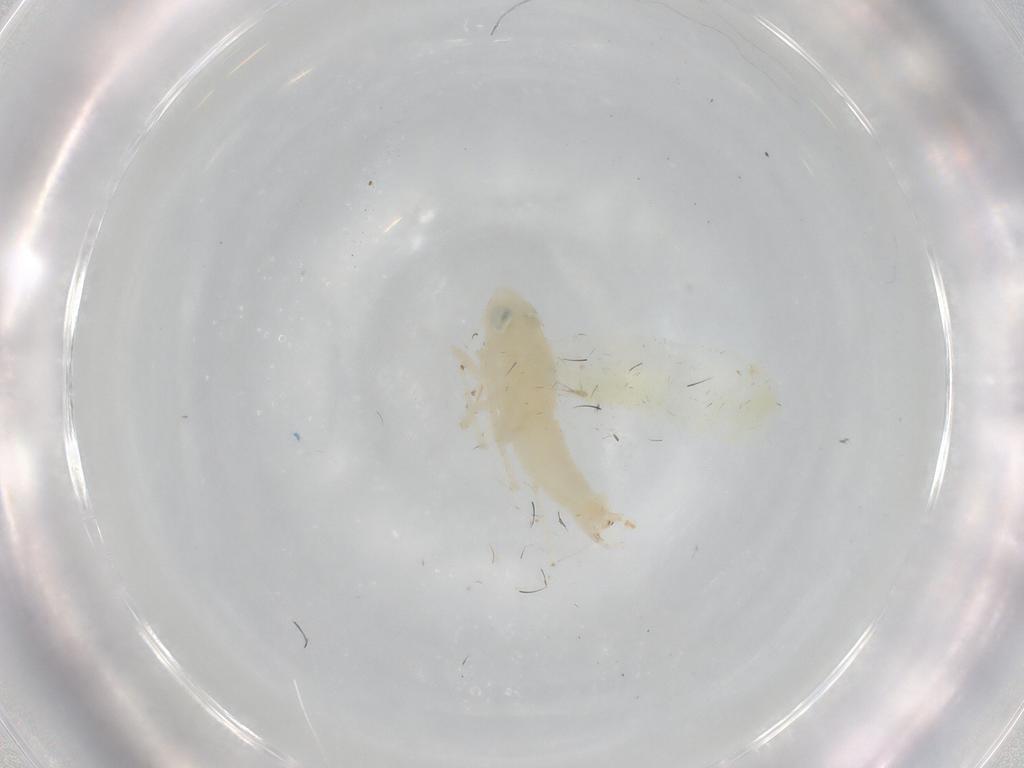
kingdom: Animalia
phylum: Arthropoda
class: Insecta
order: Hemiptera
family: Cicadellidae
